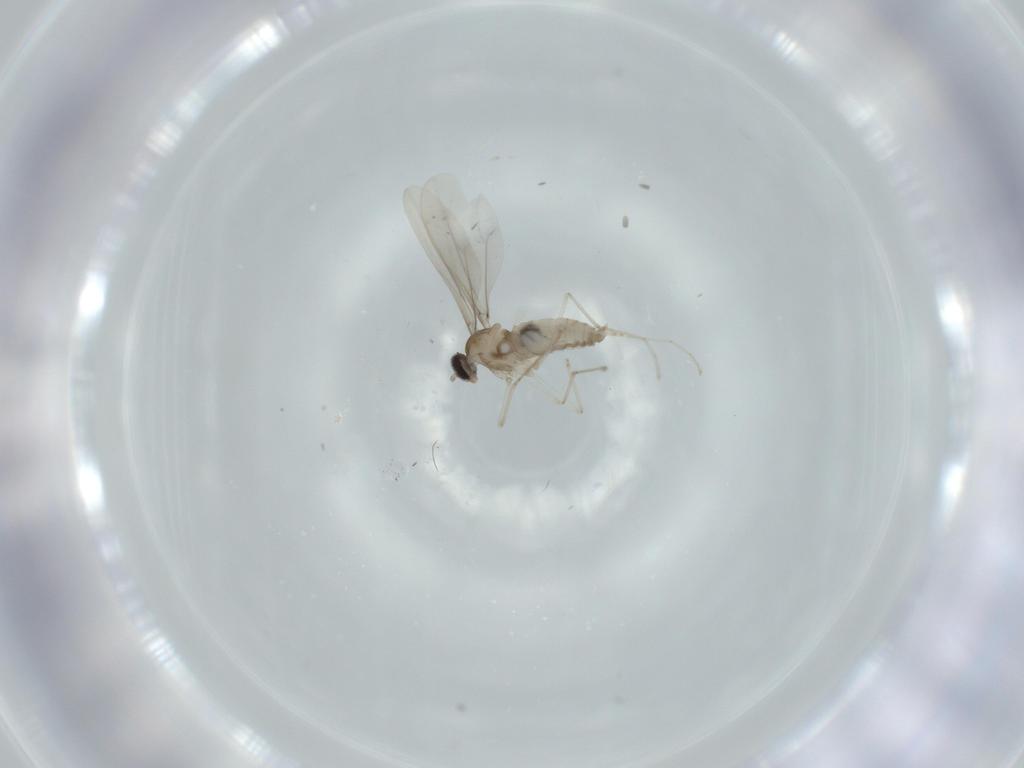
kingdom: Animalia
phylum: Arthropoda
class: Insecta
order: Diptera
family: Cecidomyiidae
